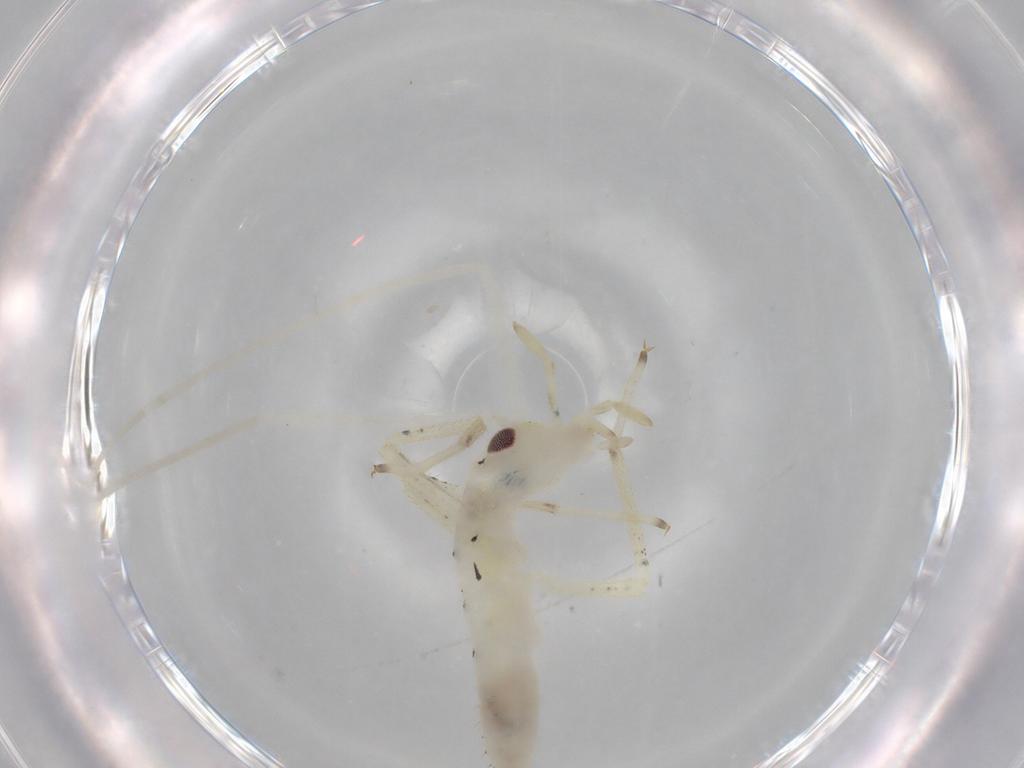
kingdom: Animalia
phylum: Arthropoda
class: Insecta
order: Orthoptera
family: Oecanthidae
